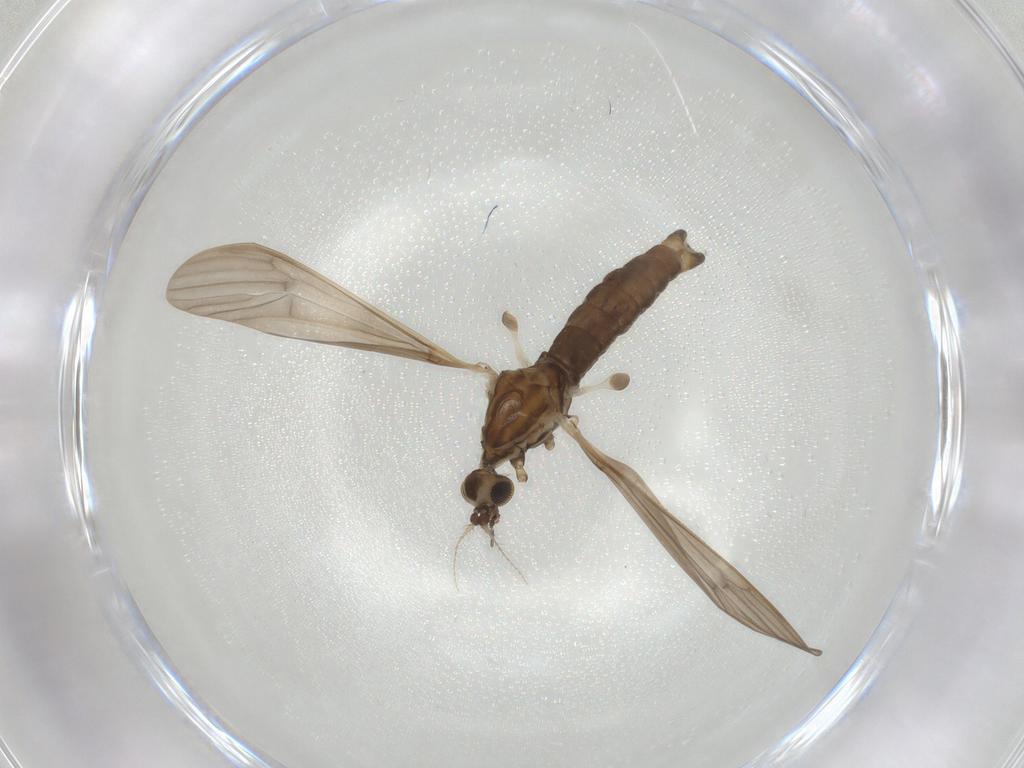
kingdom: Animalia
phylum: Arthropoda
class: Insecta
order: Diptera
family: Limoniidae
